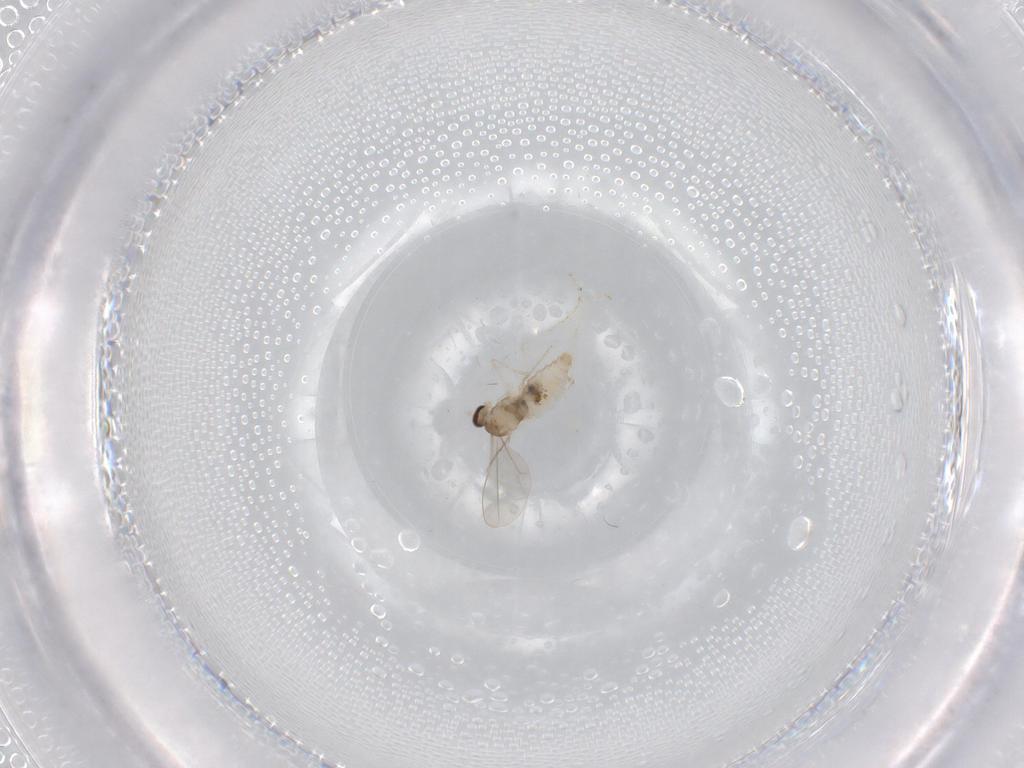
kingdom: Animalia
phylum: Arthropoda
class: Insecta
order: Diptera
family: Cecidomyiidae
